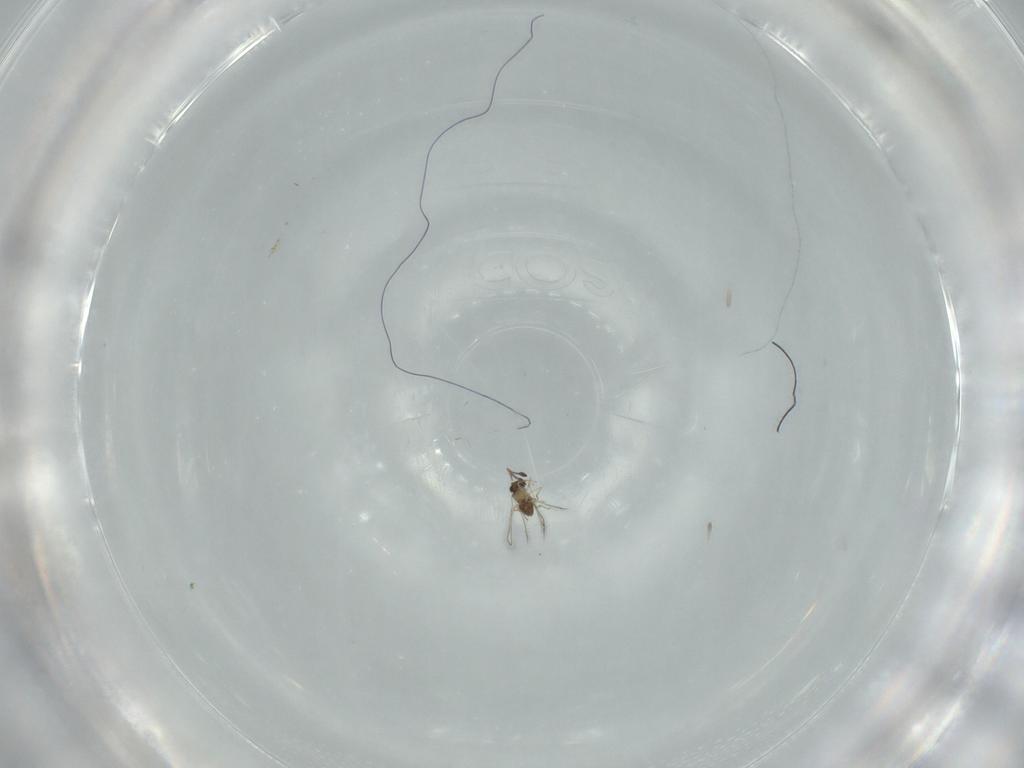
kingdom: Animalia
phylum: Arthropoda
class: Insecta
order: Hymenoptera
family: Mymaridae
